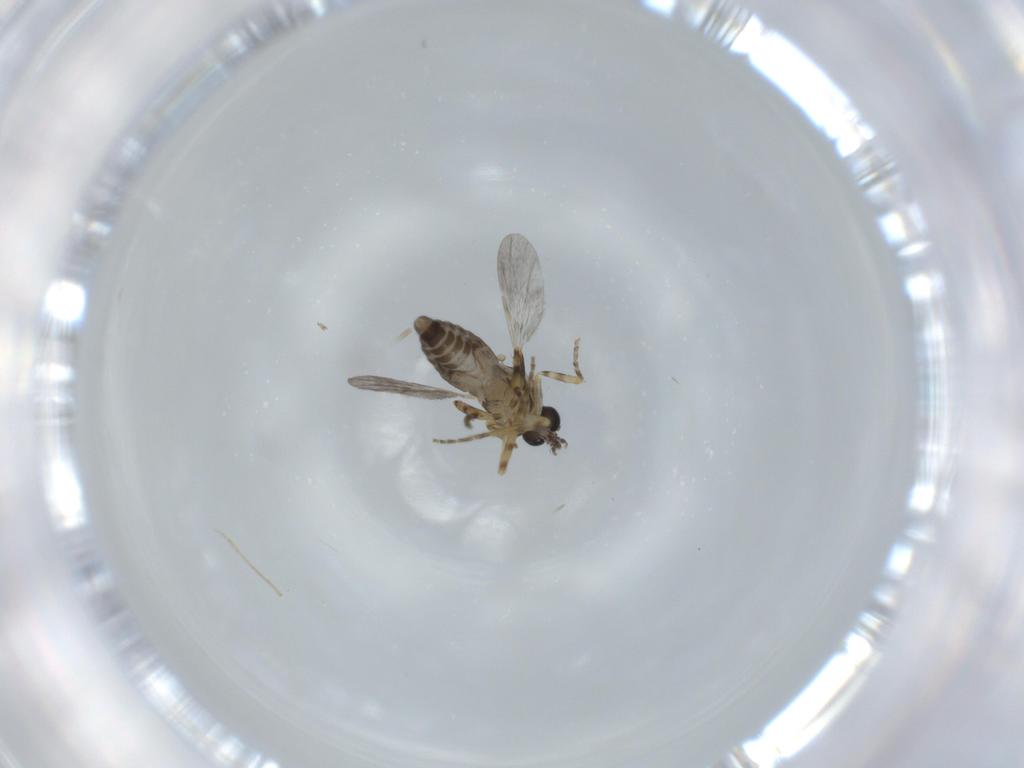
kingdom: Animalia
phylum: Arthropoda
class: Insecta
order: Diptera
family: Ceratopogonidae
